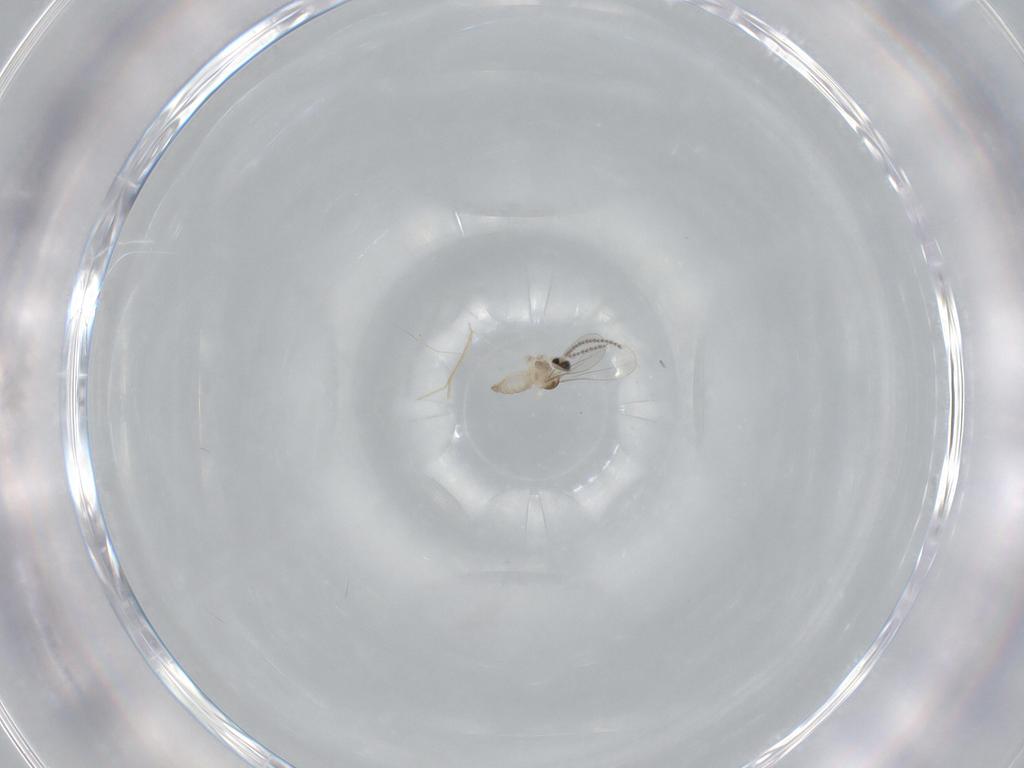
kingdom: Animalia
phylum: Arthropoda
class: Insecta
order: Diptera
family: Cecidomyiidae
